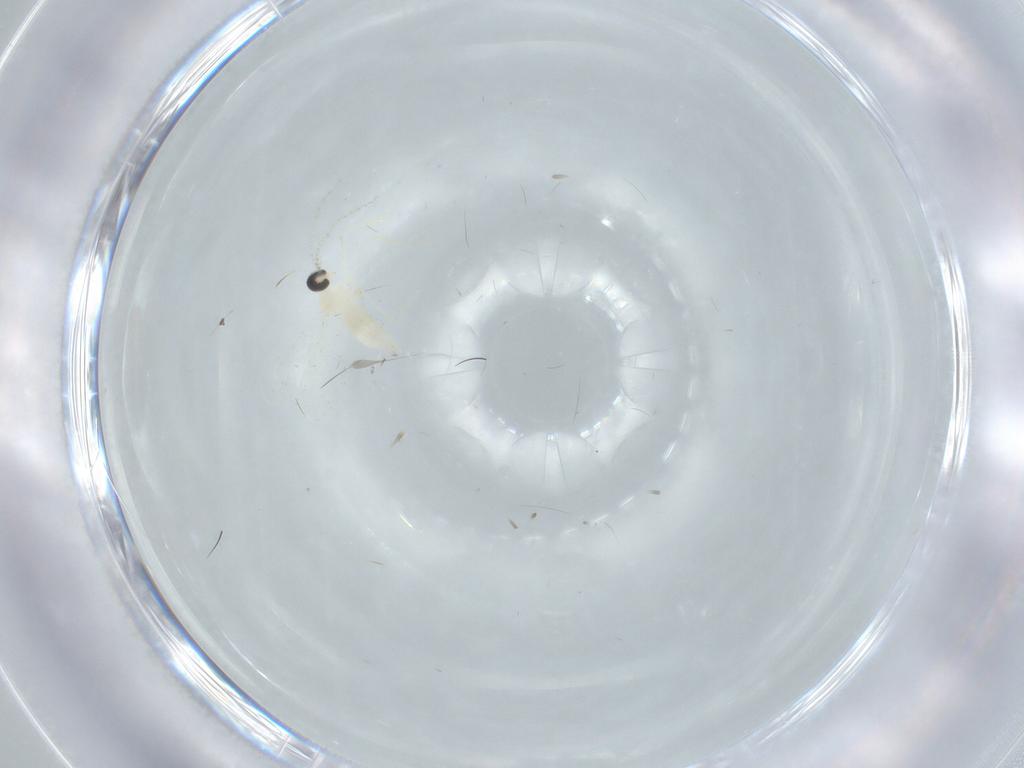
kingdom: Animalia
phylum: Arthropoda
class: Insecta
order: Diptera
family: Cecidomyiidae
